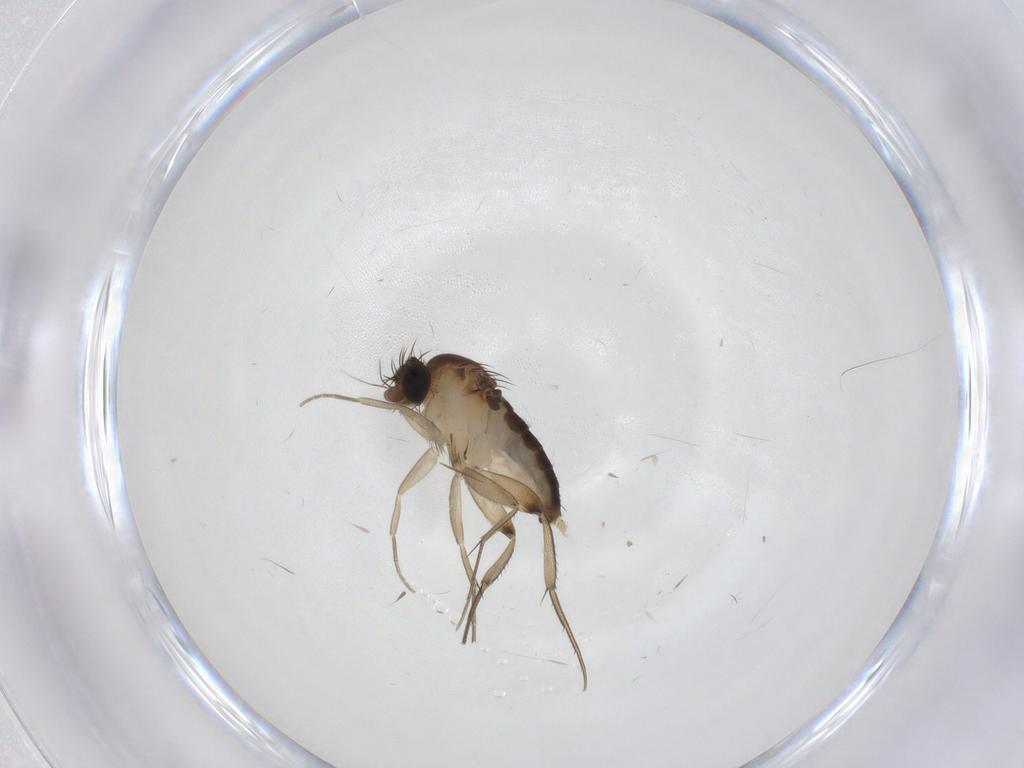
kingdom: Animalia
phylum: Arthropoda
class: Insecta
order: Diptera
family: Phoridae
